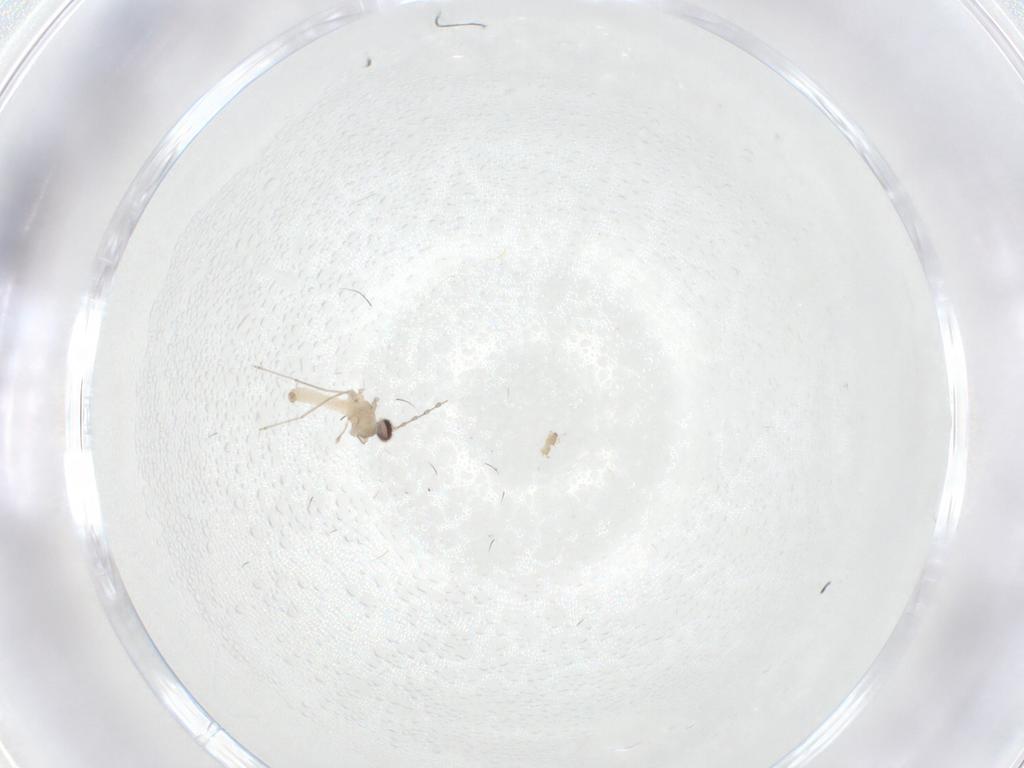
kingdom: Animalia
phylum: Arthropoda
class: Insecta
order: Diptera
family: Cecidomyiidae
